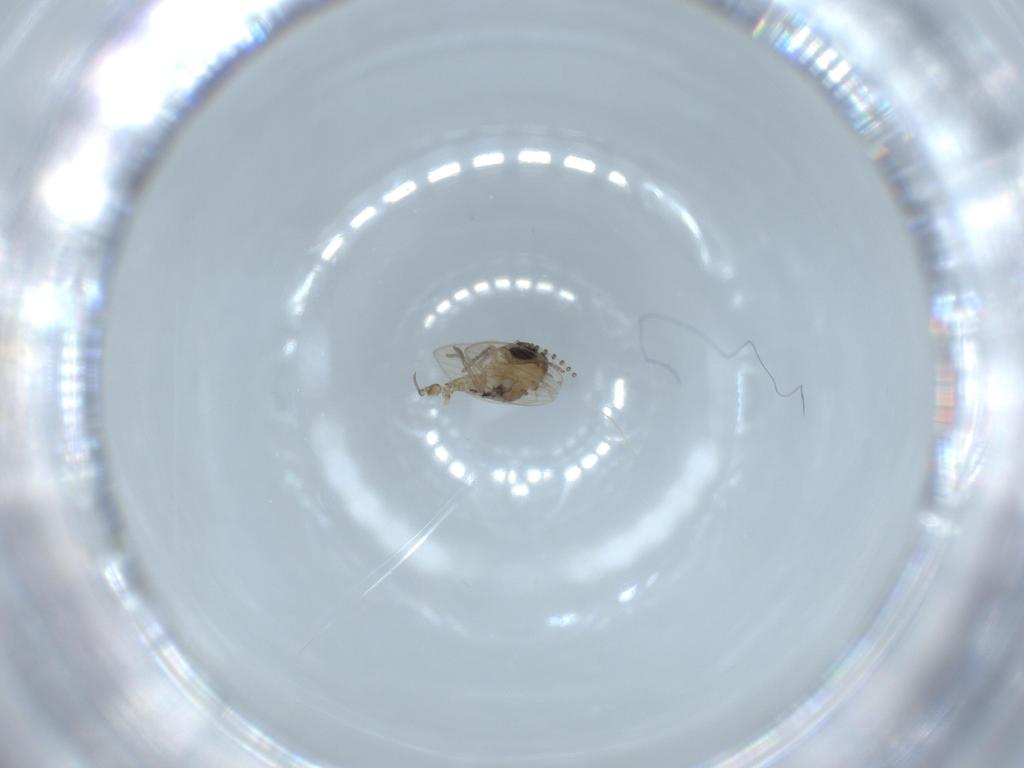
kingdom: Animalia
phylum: Arthropoda
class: Insecta
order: Diptera
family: Psychodidae
